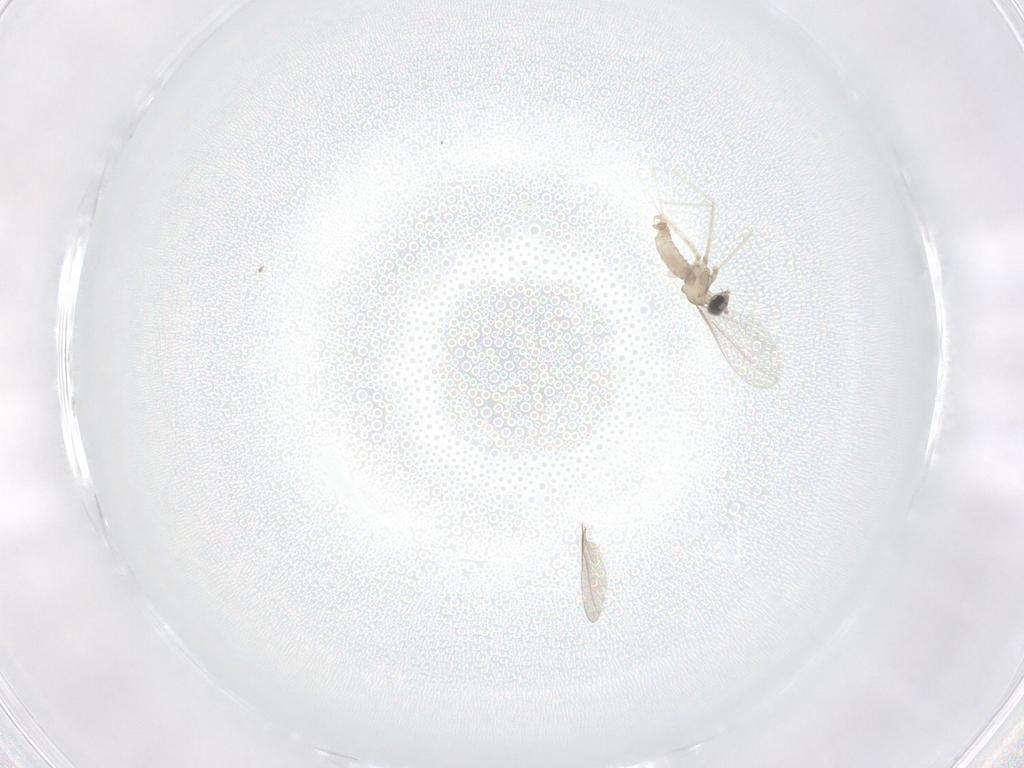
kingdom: Animalia
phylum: Arthropoda
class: Insecta
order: Diptera
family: Cecidomyiidae
